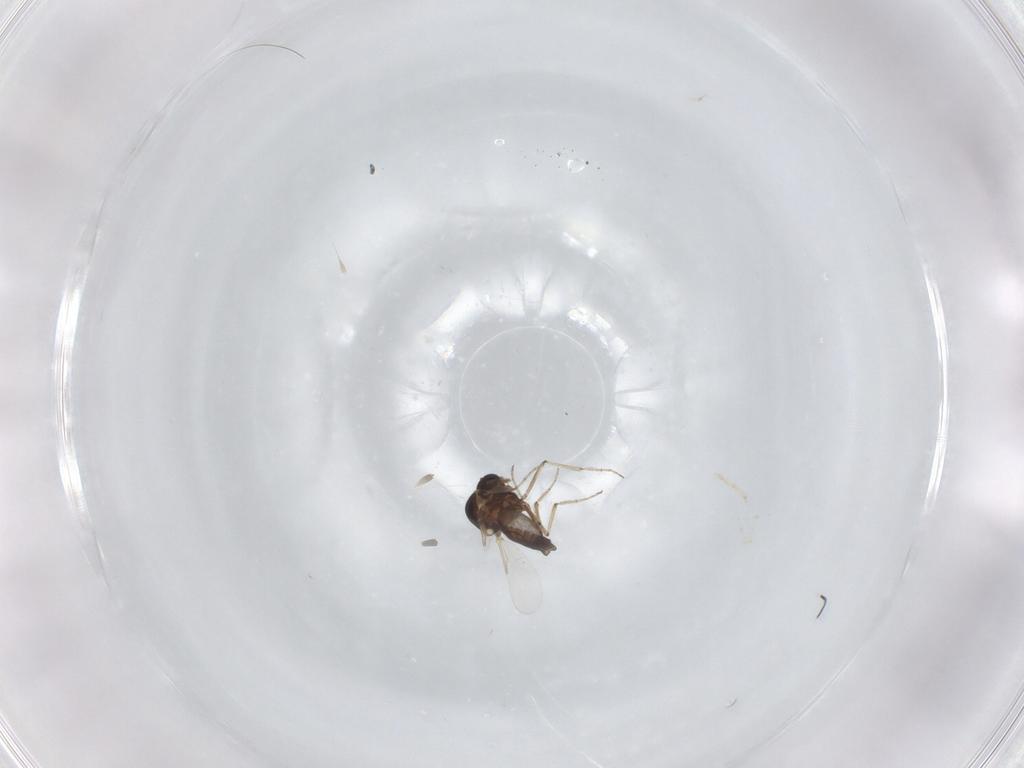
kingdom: Animalia
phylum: Arthropoda
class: Insecta
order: Diptera
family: Ceratopogonidae
